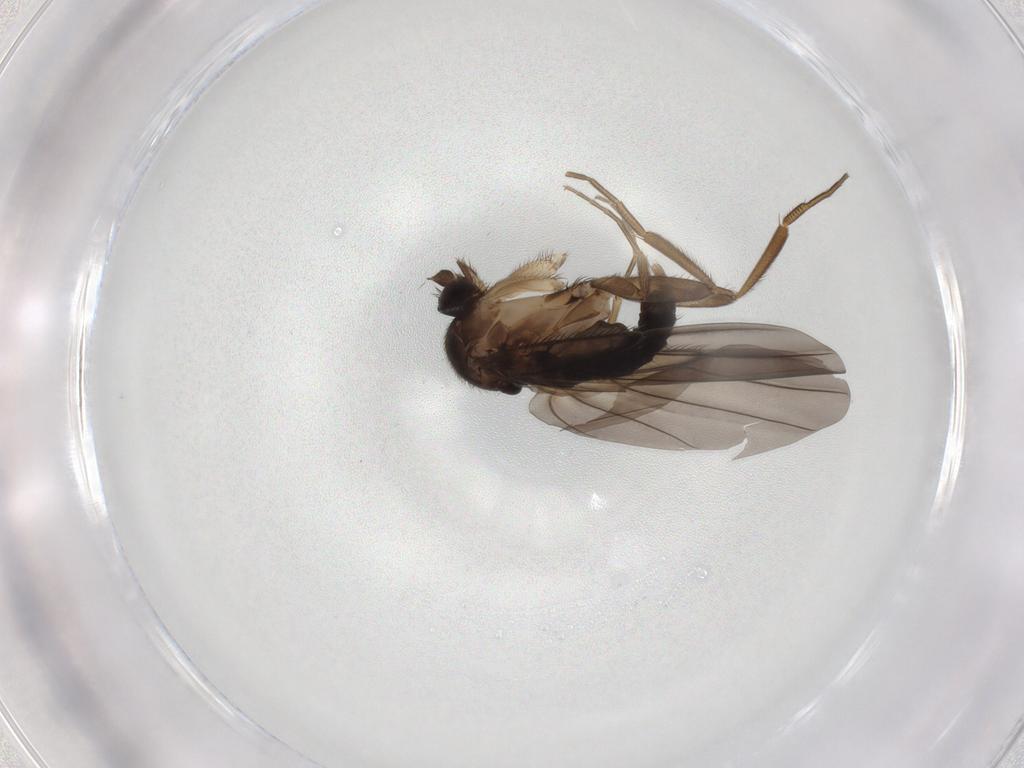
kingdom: Animalia
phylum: Arthropoda
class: Insecta
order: Diptera
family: Phoridae
